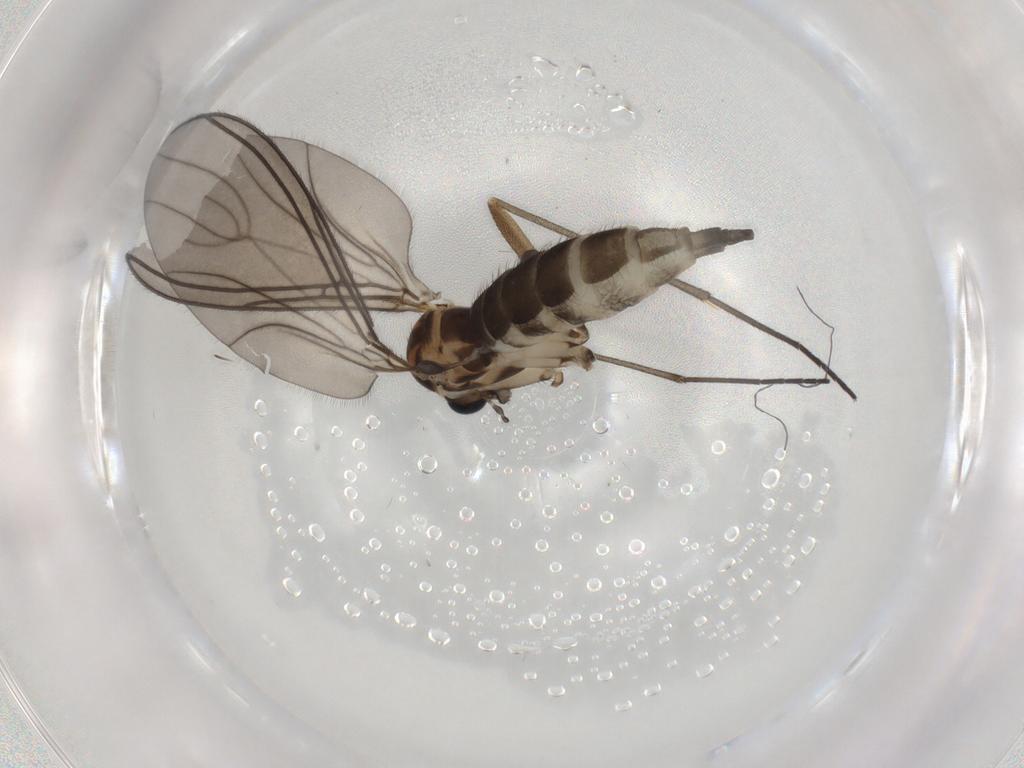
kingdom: Animalia
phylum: Arthropoda
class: Insecta
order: Diptera
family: Sciaridae
